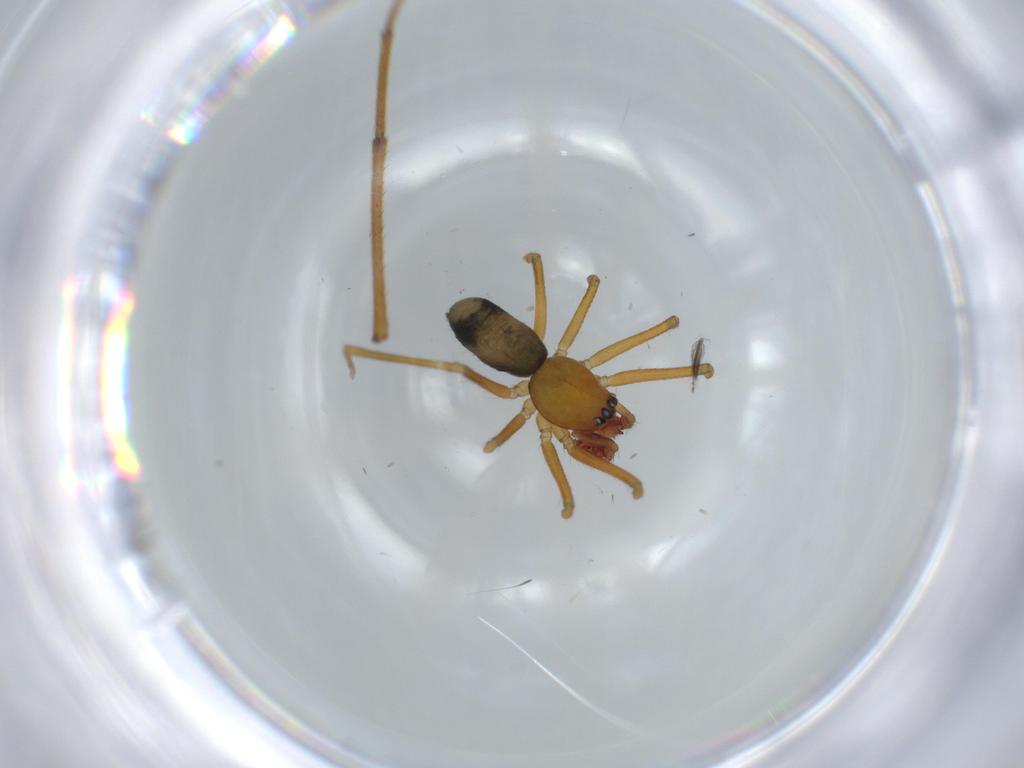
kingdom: Animalia
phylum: Arthropoda
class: Arachnida
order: Araneae
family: Linyphiidae
